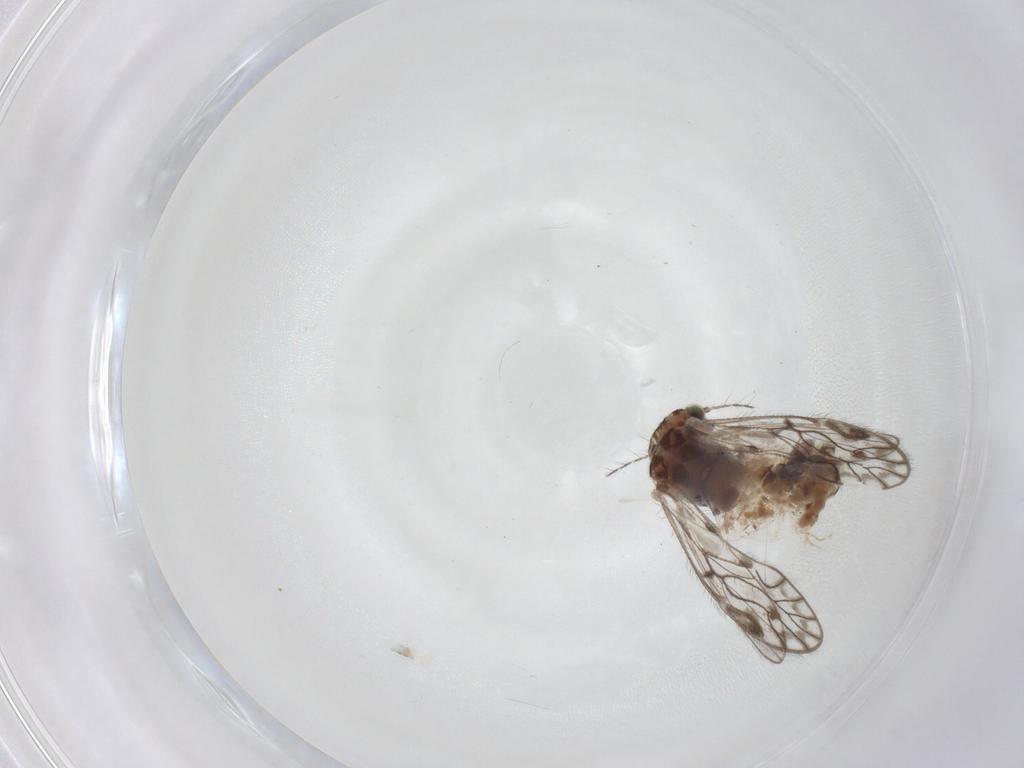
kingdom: Animalia
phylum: Arthropoda
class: Insecta
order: Psocodea
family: Psocidae
